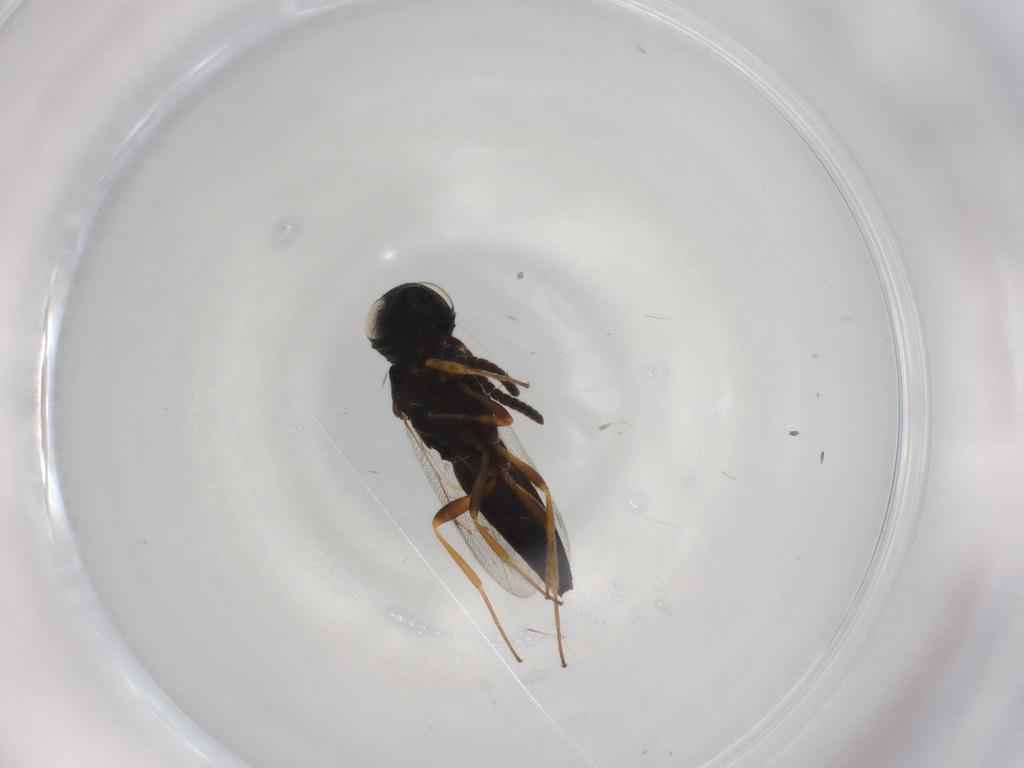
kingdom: Animalia
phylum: Arthropoda
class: Insecta
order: Hymenoptera
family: Scelionidae
